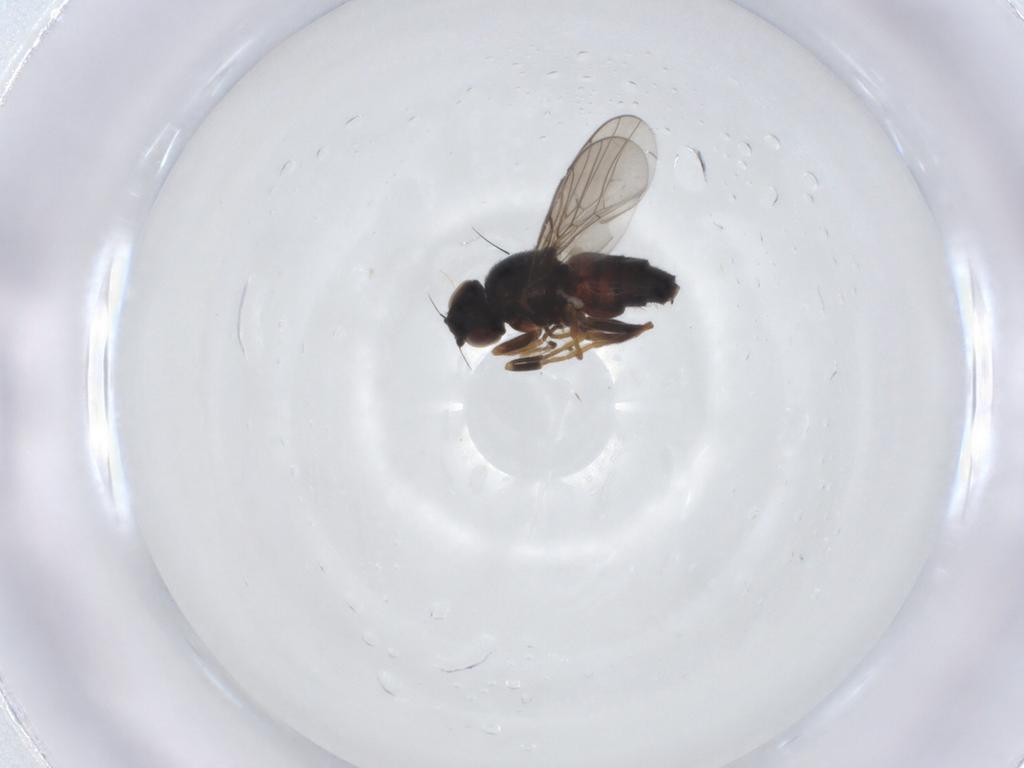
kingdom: Animalia
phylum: Arthropoda
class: Insecta
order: Diptera
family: Chloropidae
